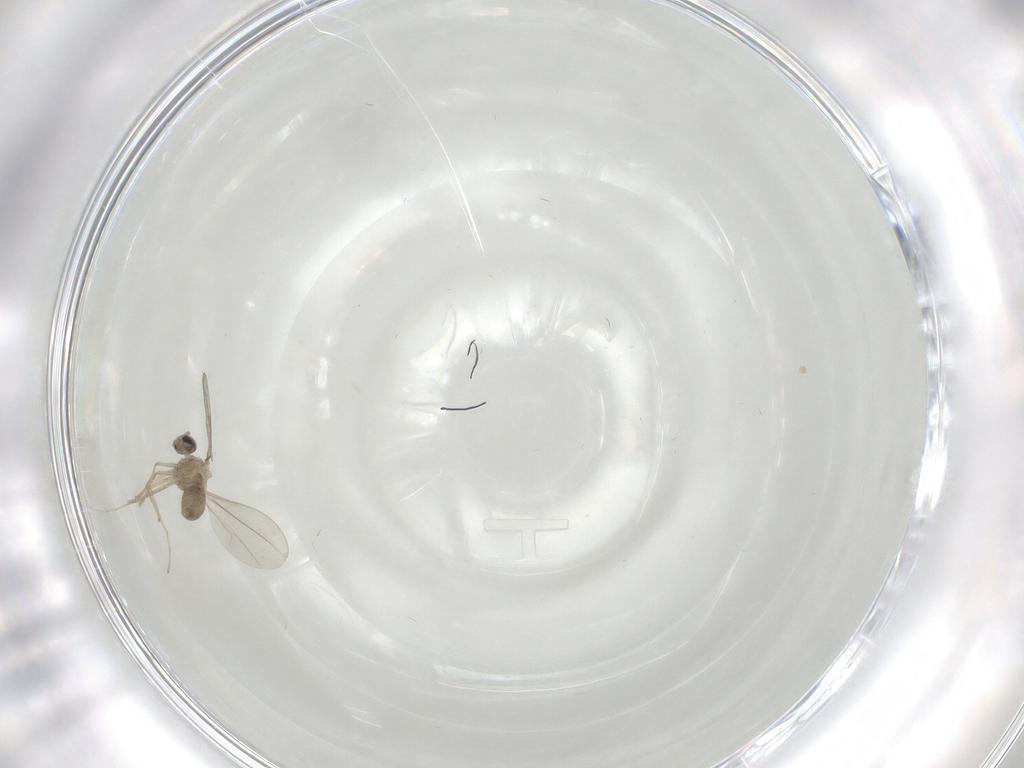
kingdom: Animalia
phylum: Arthropoda
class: Insecta
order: Diptera
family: Cecidomyiidae
